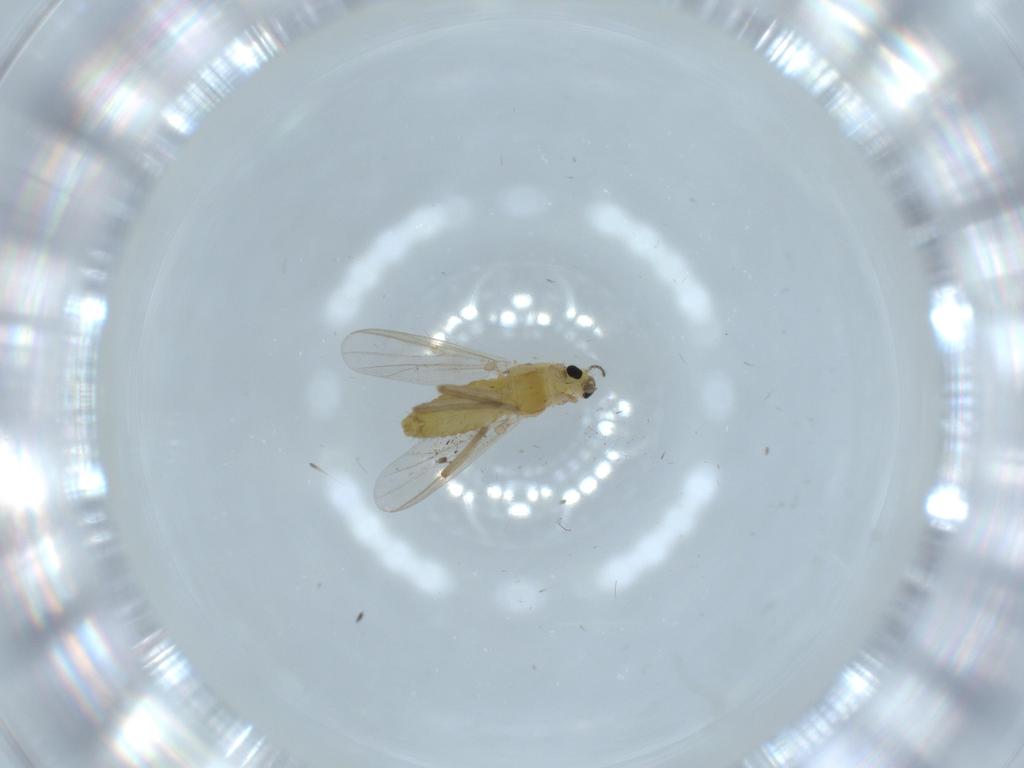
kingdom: Animalia
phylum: Arthropoda
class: Insecta
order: Diptera
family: Chironomidae
